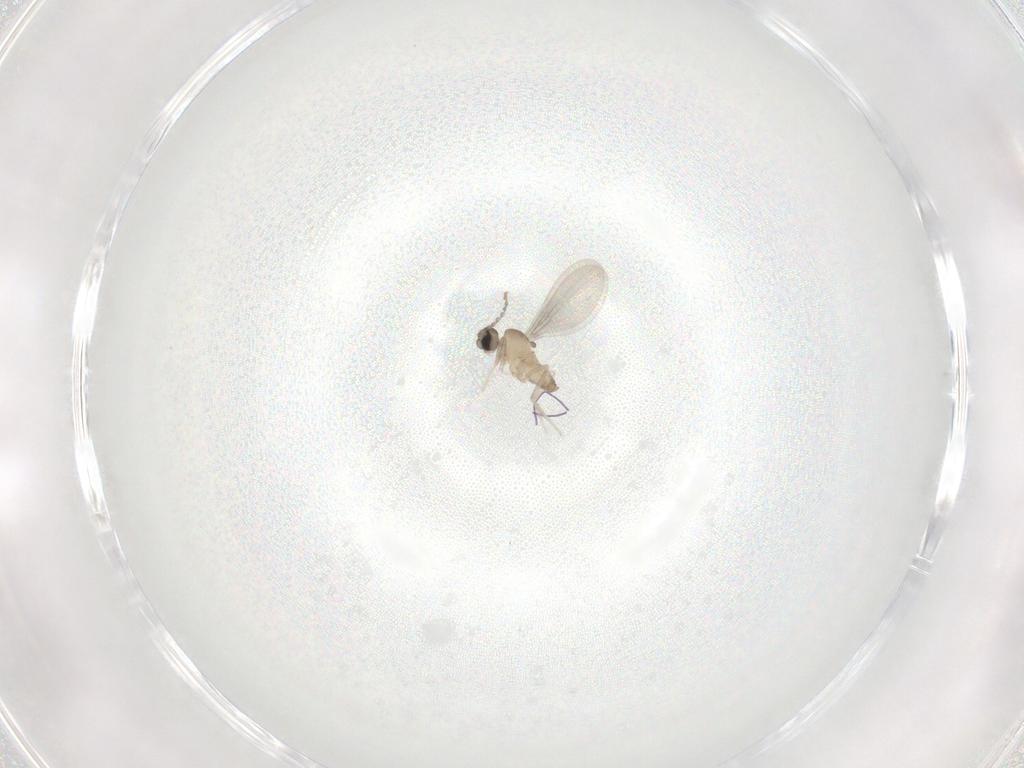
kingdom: Animalia
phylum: Arthropoda
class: Insecta
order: Diptera
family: Cecidomyiidae
